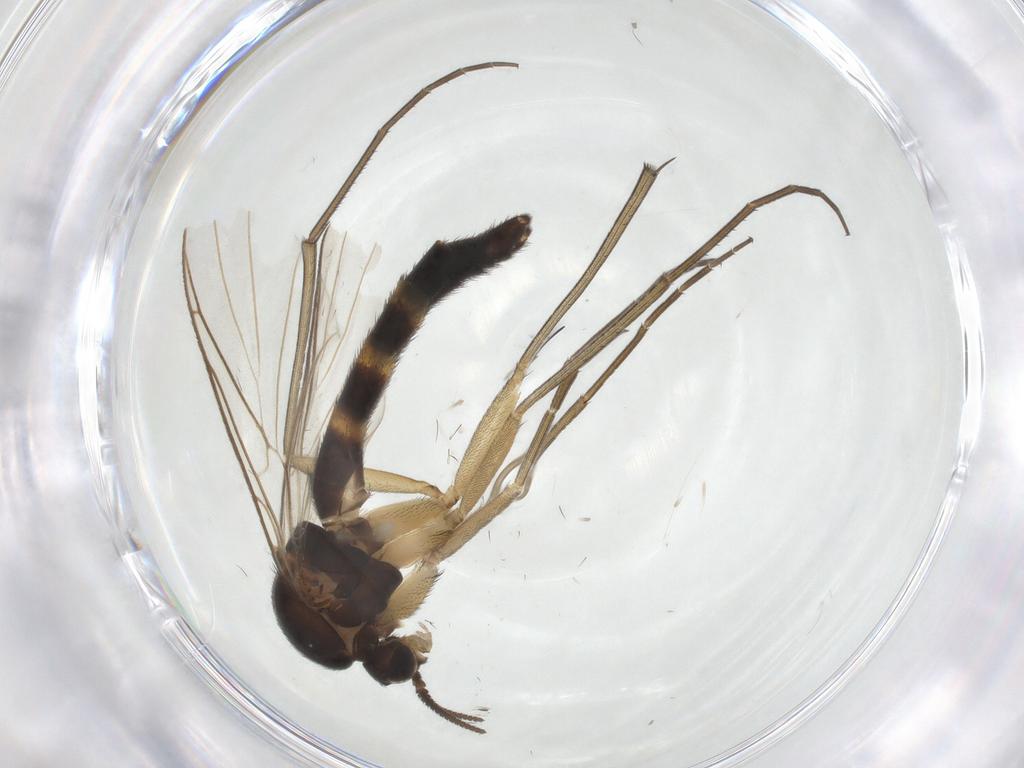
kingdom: Animalia
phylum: Arthropoda
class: Insecta
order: Diptera
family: Keroplatidae
